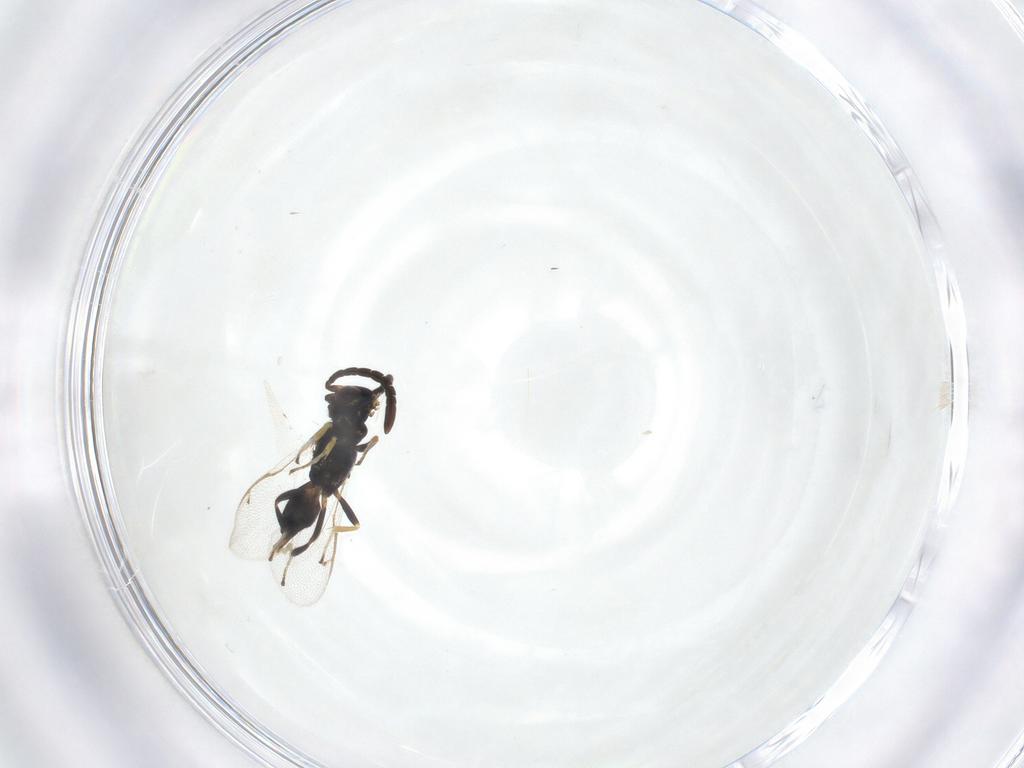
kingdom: Animalia
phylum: Arthropoda
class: Insecta
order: Hymenoptera
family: Eupelmidae
